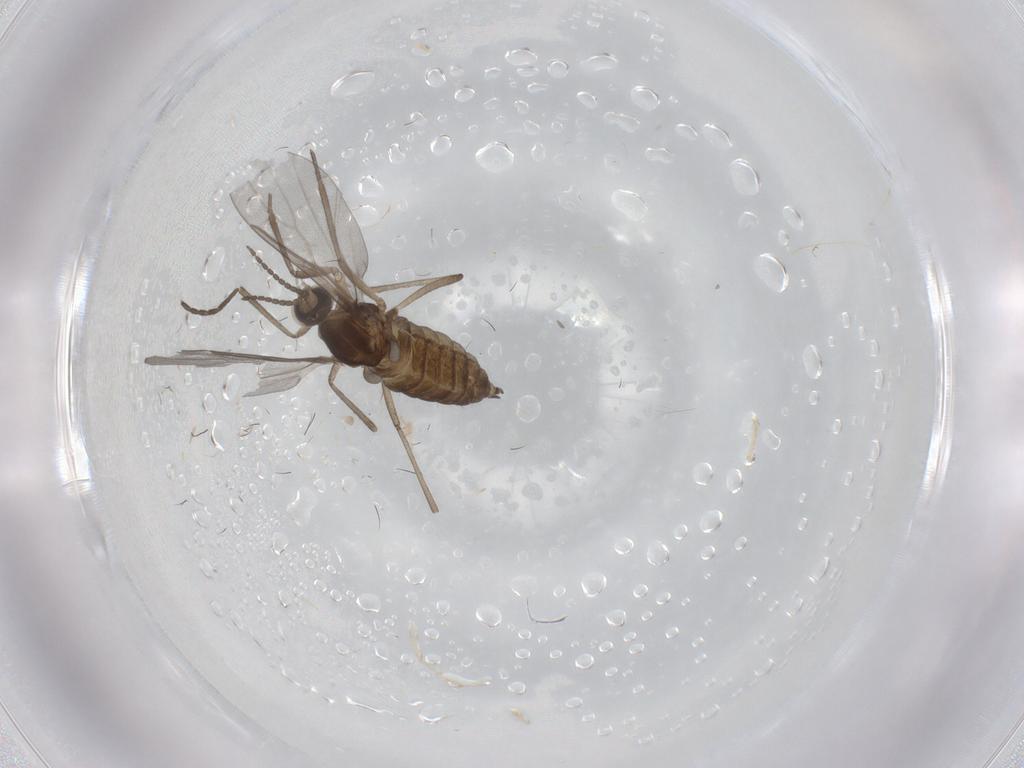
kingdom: Animalia
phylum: Arthropoda
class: Insecta
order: Diptera
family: Cecidomyiidae
